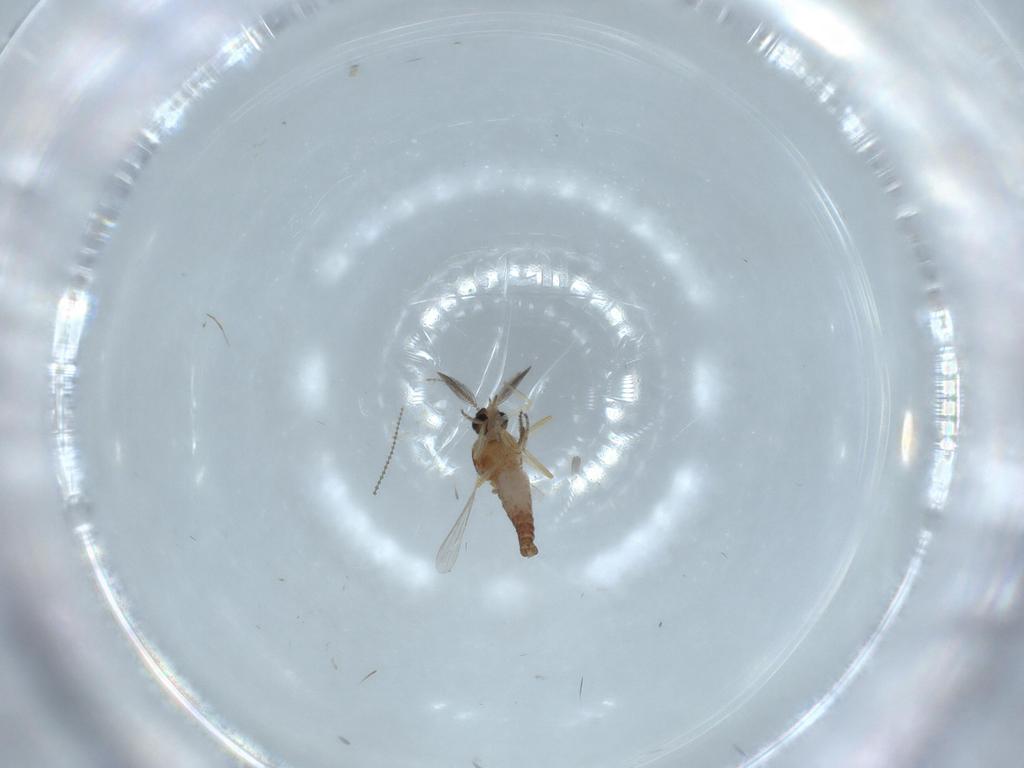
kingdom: Animalia
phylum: Arthropoda
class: Insecta
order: Diptera
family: Ceratopogonidae
